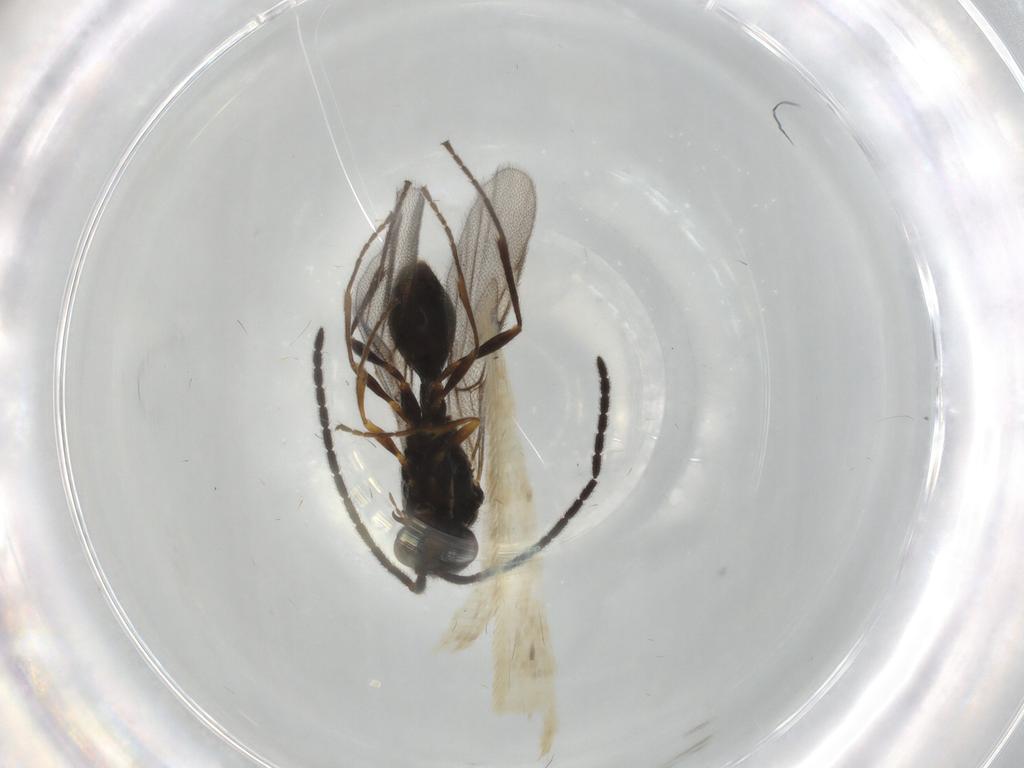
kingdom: Animalia
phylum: Arthropoda
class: Insecta
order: Hymenoptera
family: Diapriidae
